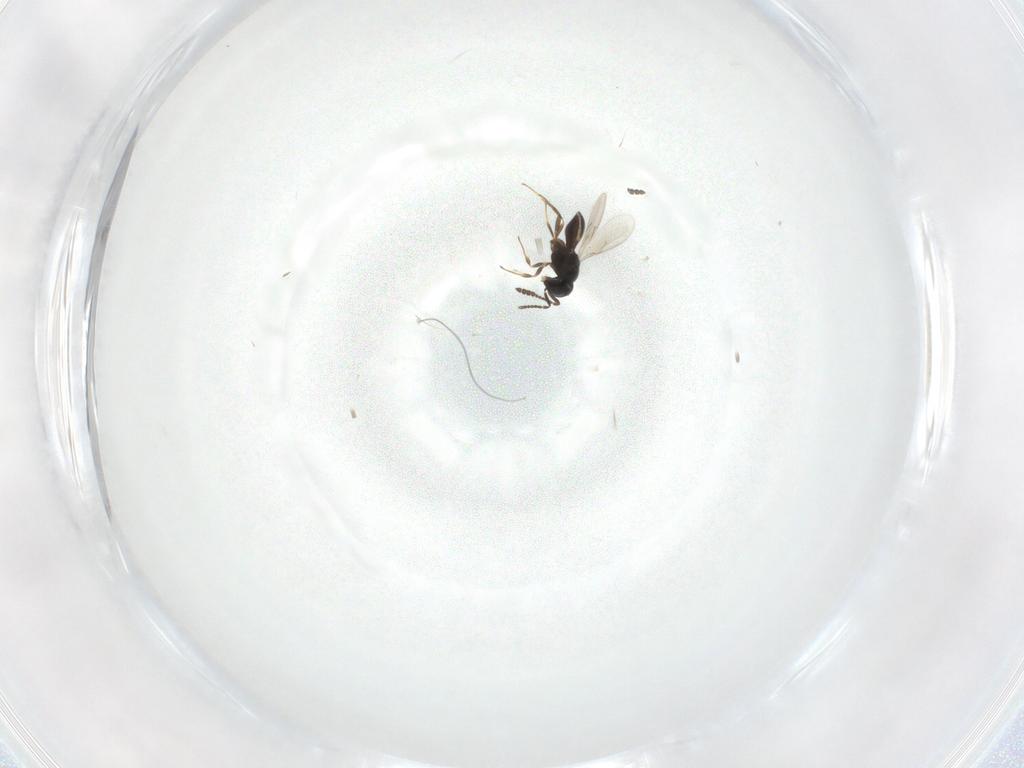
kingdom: Animalia
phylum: Arthropoda
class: Insecta
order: Hymenoptera
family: Scelionidae
